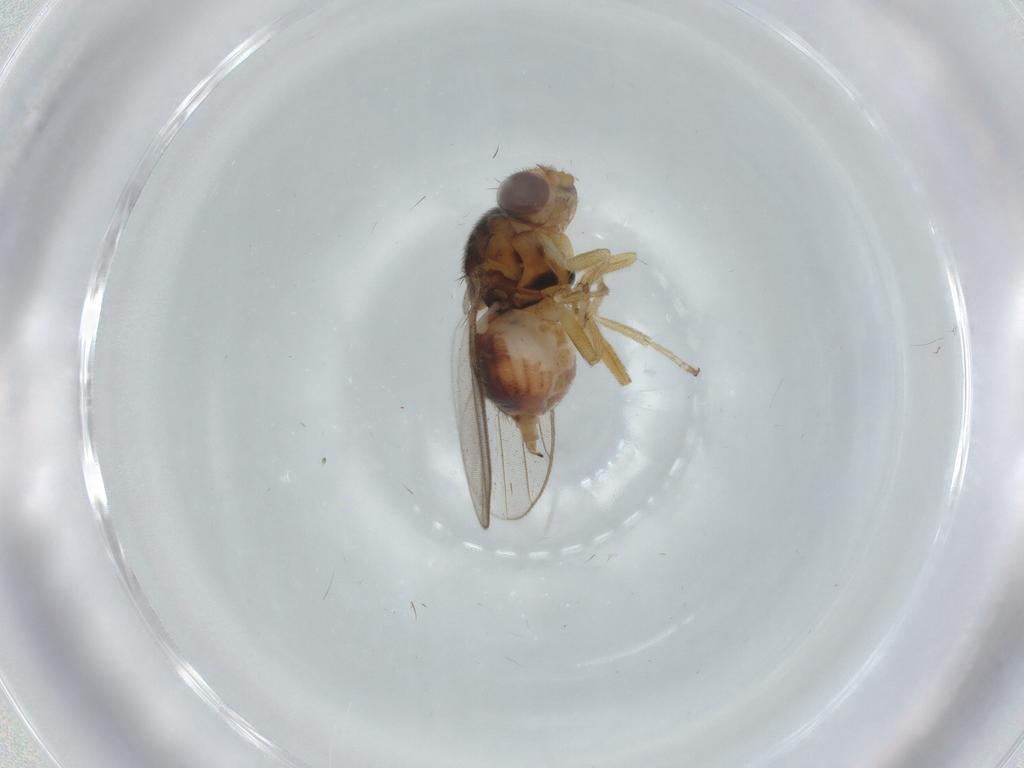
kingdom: Animalia
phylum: Arthropoda
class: Insecta
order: Diptera
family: Chloropidae
